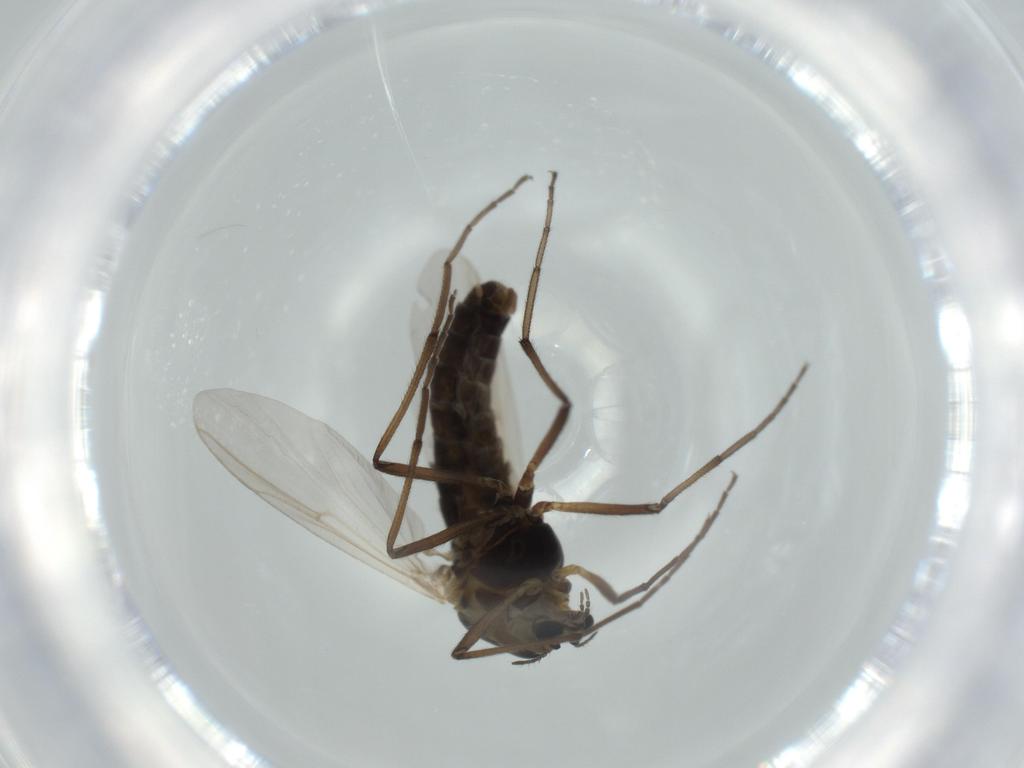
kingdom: Animalia
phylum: Arthropoda
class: Insecta
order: Diptera
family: Chironomidae
